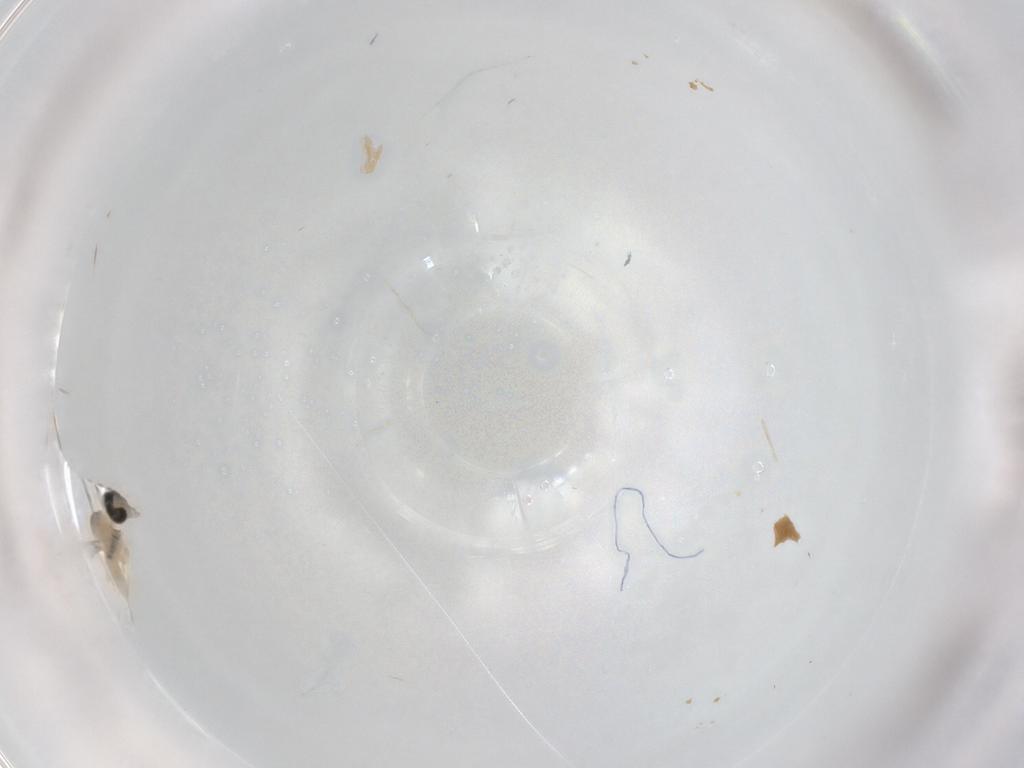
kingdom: Animalia
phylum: Arthropoda
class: Insecta
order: Diptera
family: Cecidomyiidae
